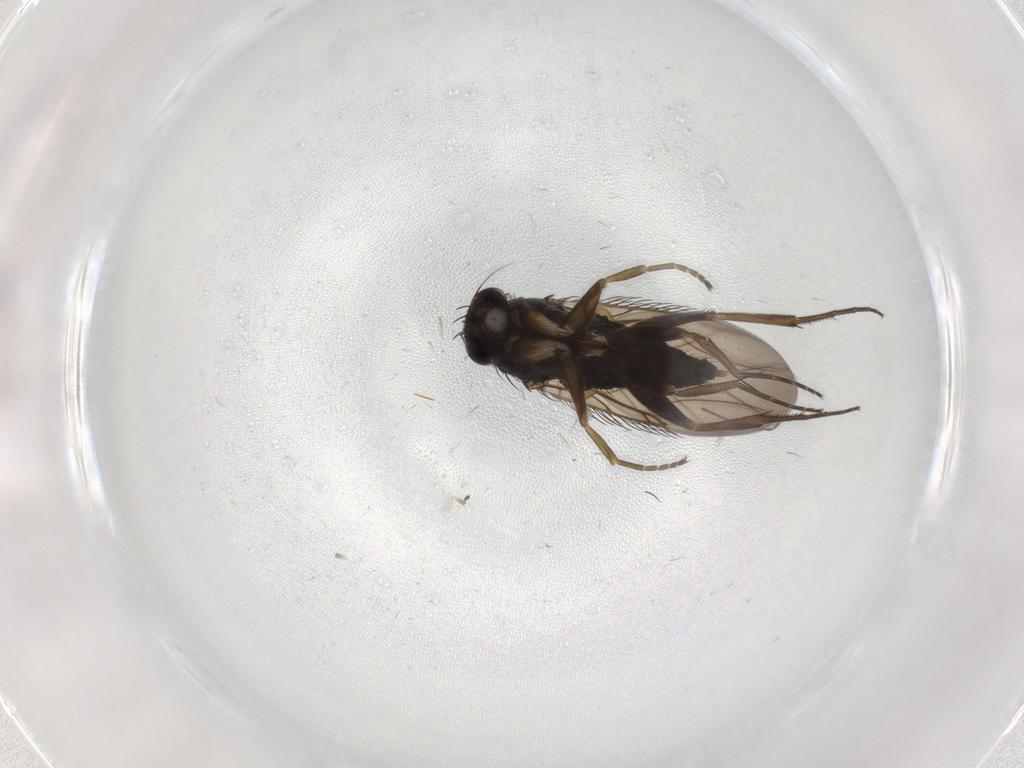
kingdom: Animalia
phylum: Arthropoda
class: Insecta
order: Diptera
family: Phoridae
